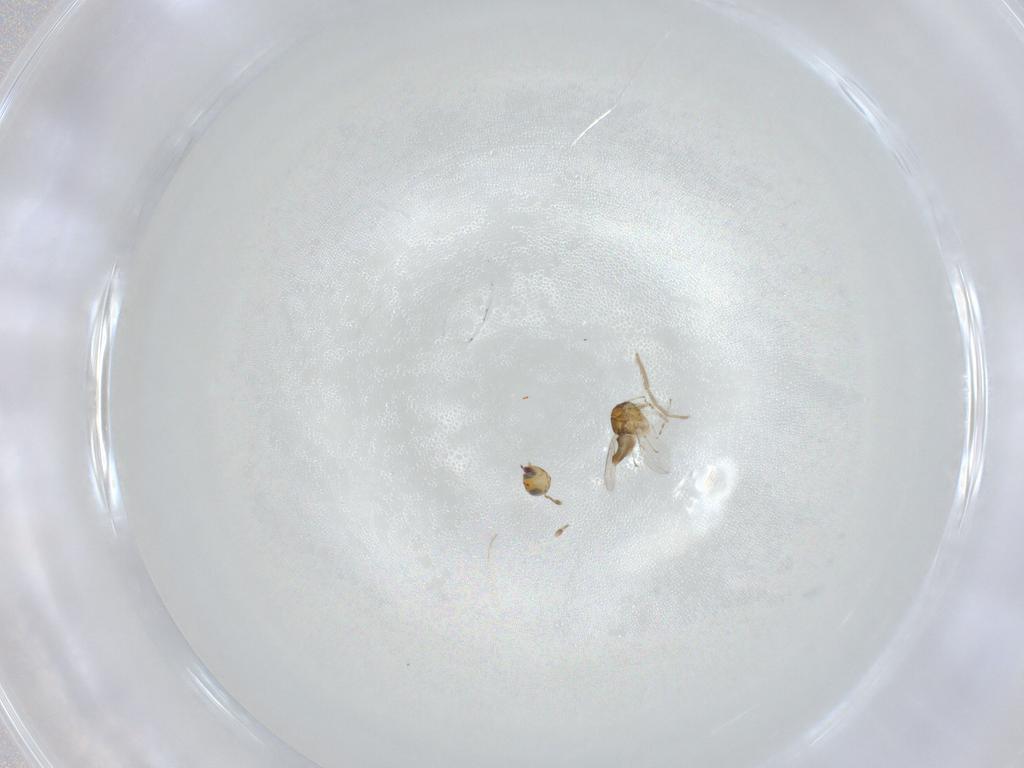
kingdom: Animalia
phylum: Arthropoda
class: Insecta
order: Hymenoptera
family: Encyrtidae
